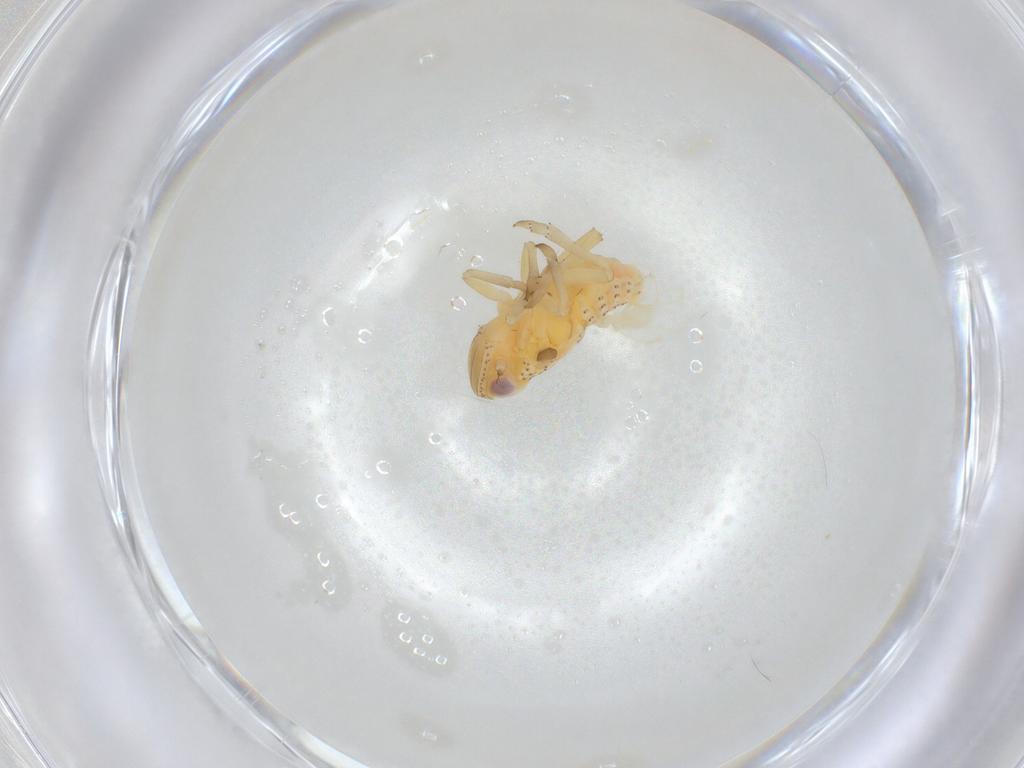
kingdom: Animalia
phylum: Arthropoda
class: Insecta
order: Hemiptera
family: Tropiduchidae
